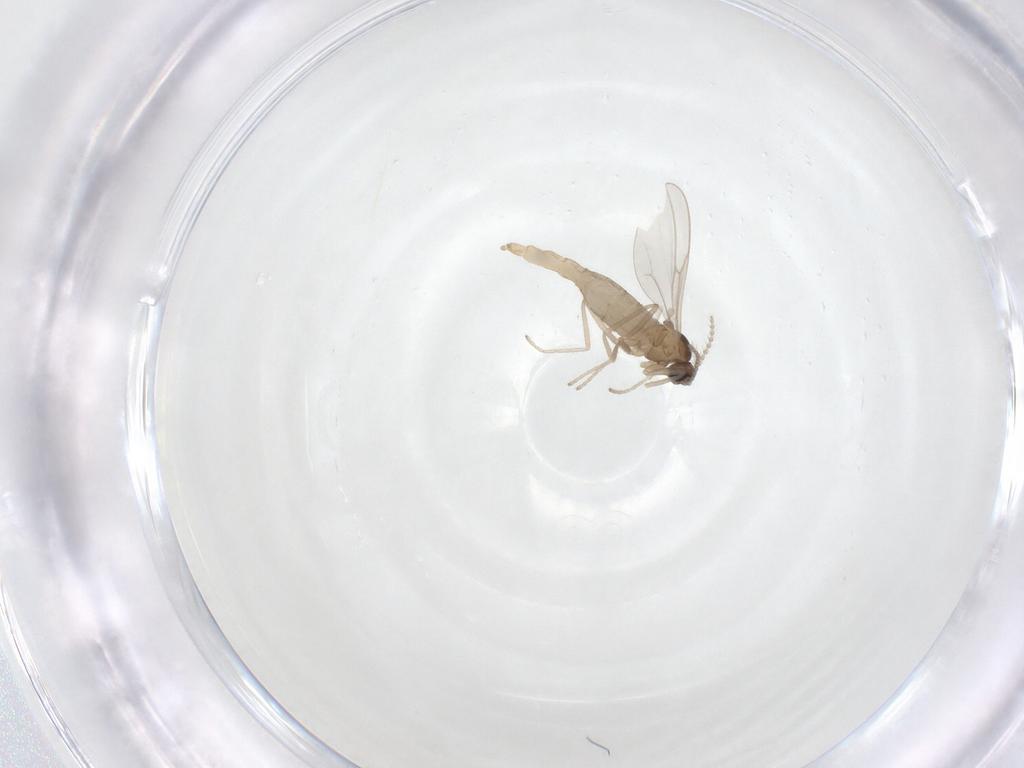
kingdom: Animalia
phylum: Arthropoda
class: Insecta
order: Diptera
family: Cecidomyiidae
